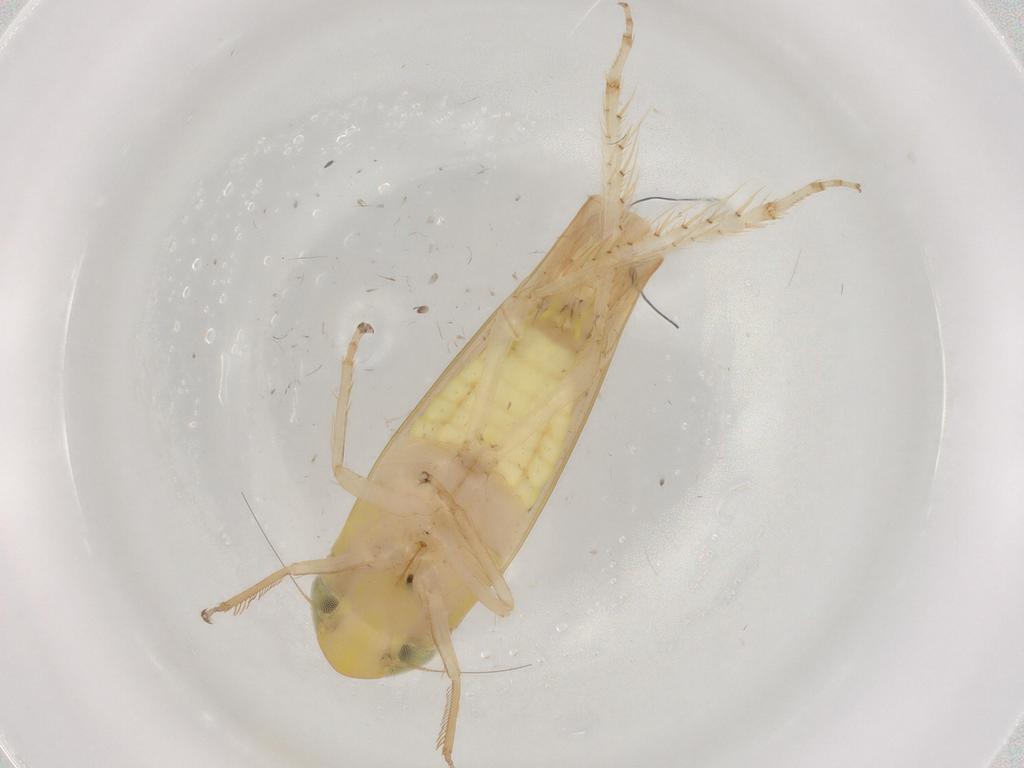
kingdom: Animalia
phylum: Arthropoda
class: Insecta
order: Hemiptera
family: Cicadellidae
